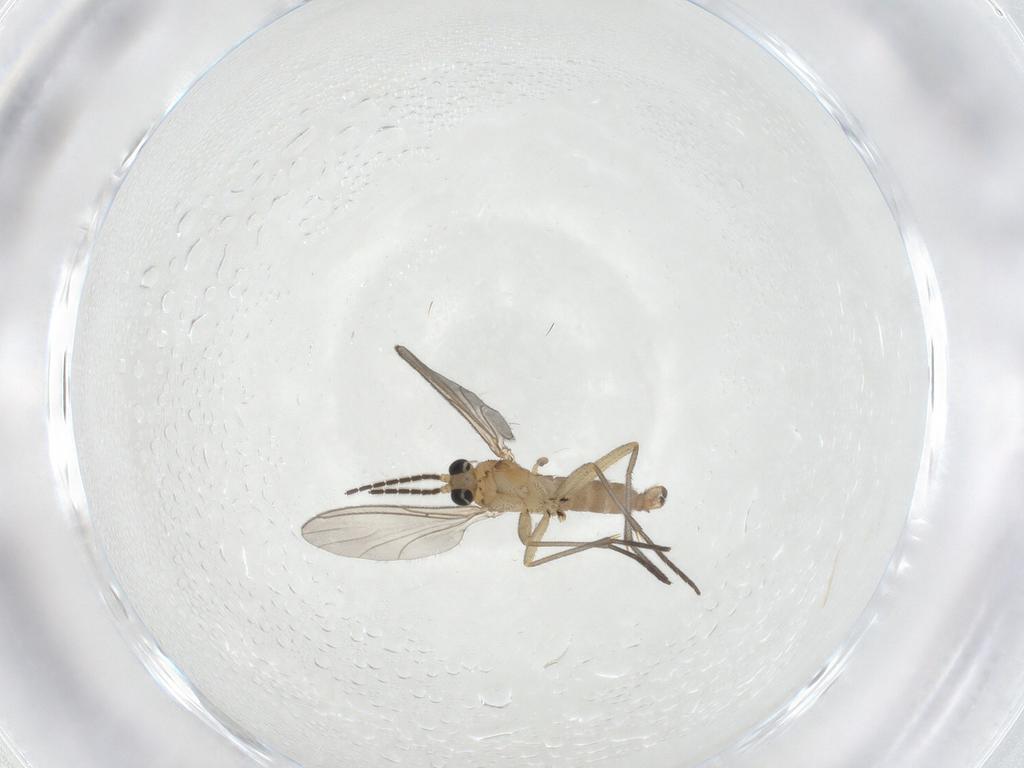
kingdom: Animalia
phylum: Arthropoda
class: Insecta
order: Diptera
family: Sciaridae
